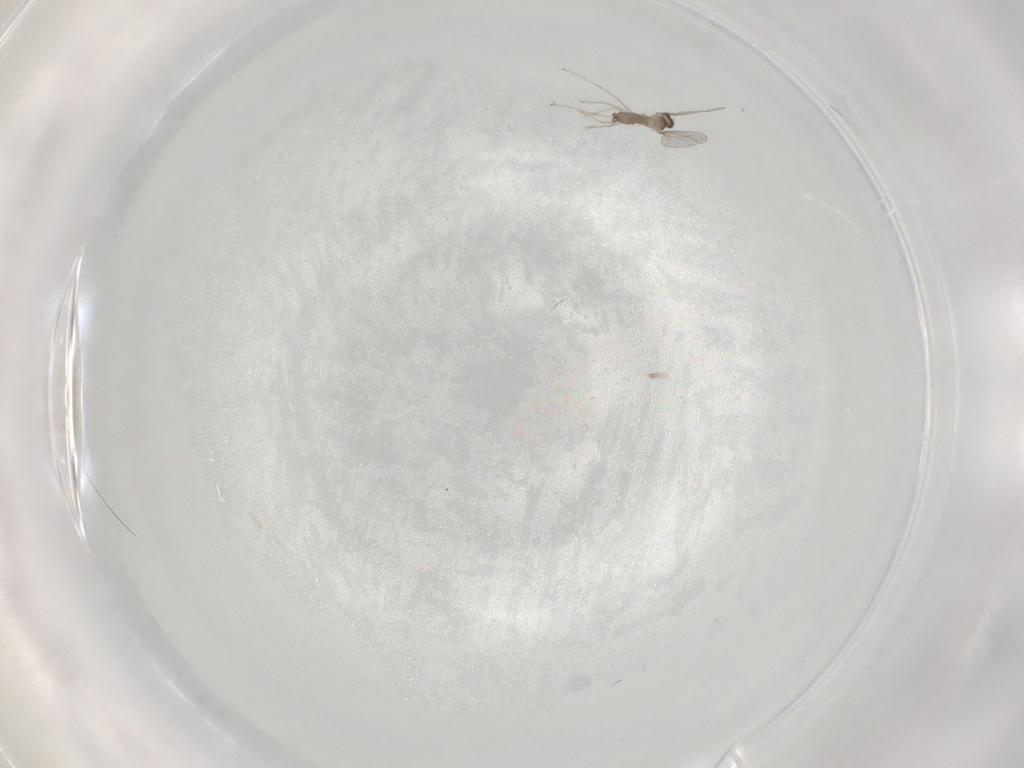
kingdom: Animalia
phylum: Arthropoda
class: Insecta
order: Diptera
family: Cecidomyiidae
